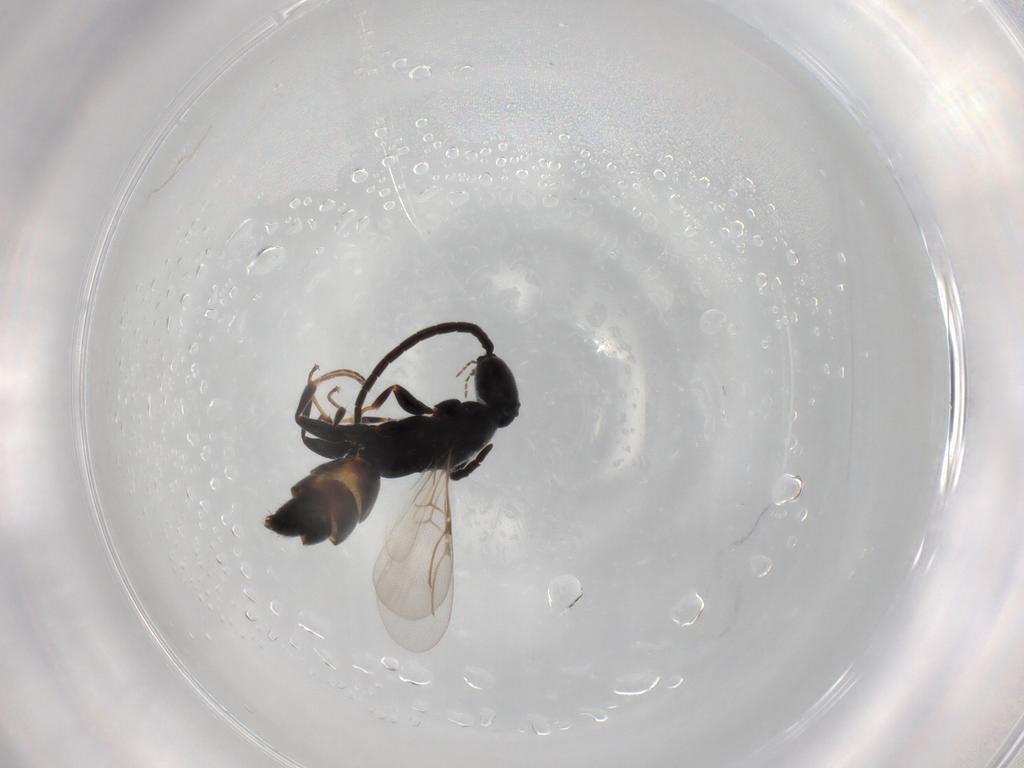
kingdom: Animalia
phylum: Arthropoda
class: Insecta
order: Hymenoptera
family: Bethylidae
